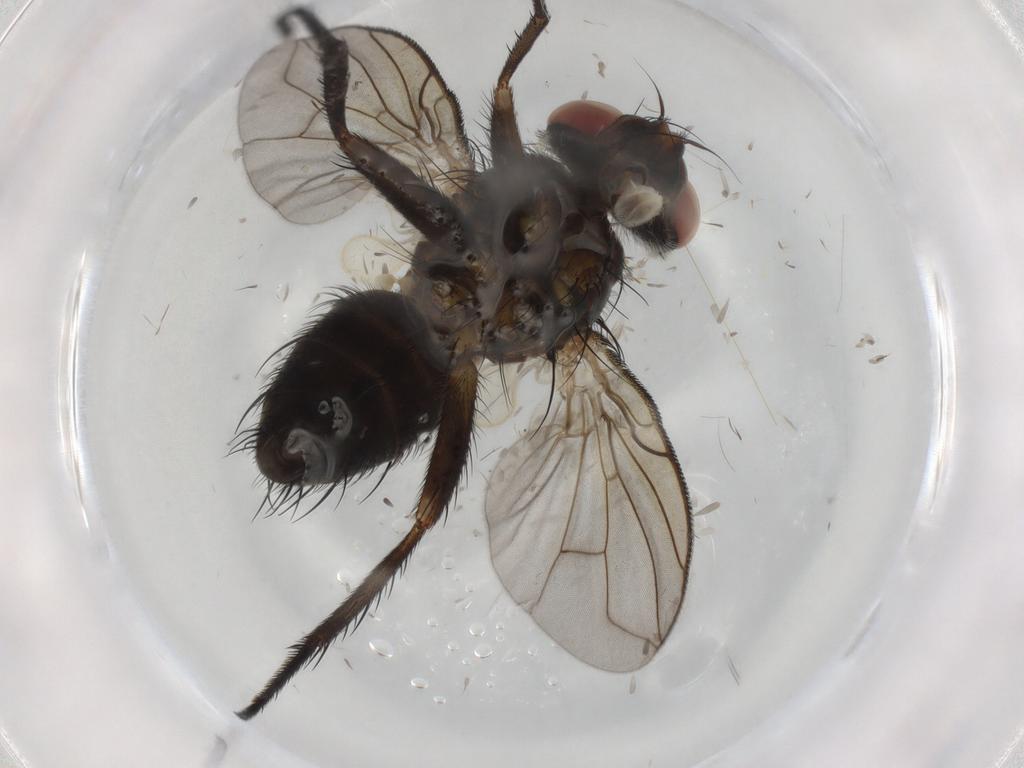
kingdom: Animalia
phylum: Arthropoda
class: Insecta
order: Diptera
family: Tachinidae
